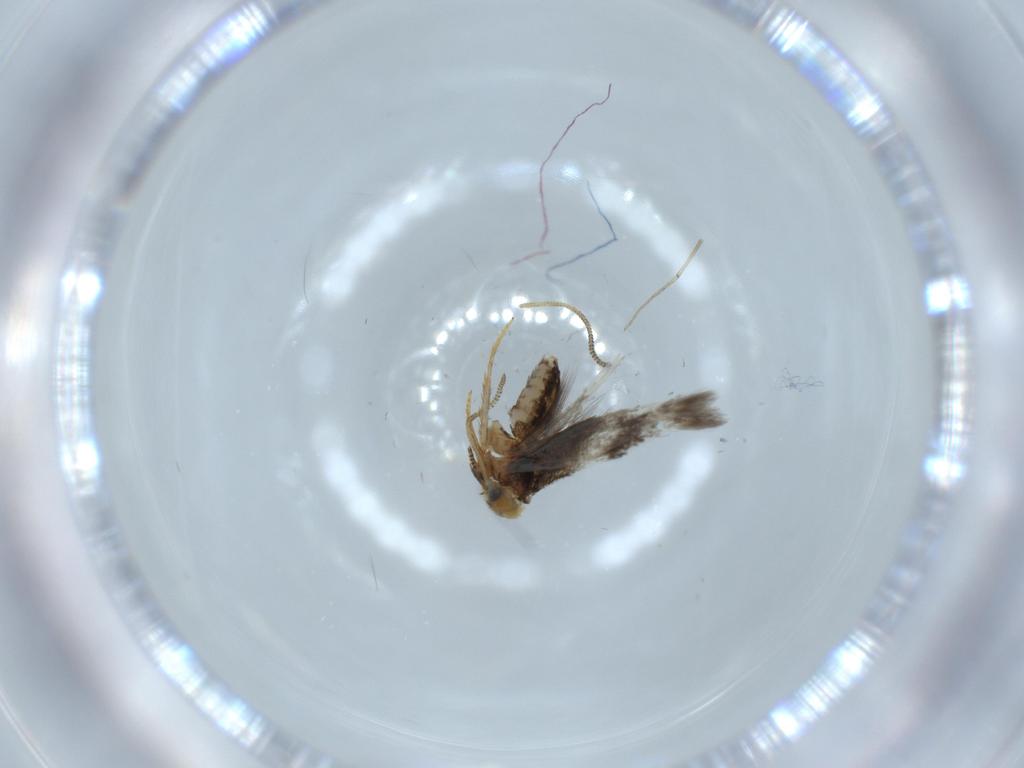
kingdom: Animalia
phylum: Arthropoda
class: Insecta
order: Lepidoptera
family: Nepticulidae
